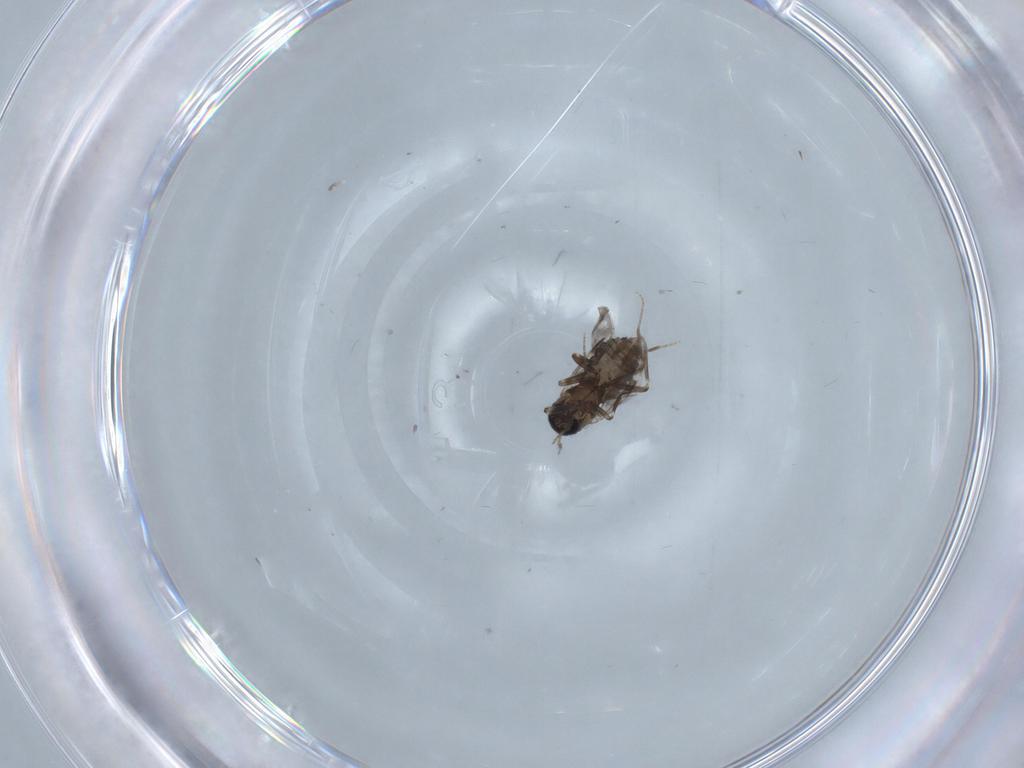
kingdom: Animalia
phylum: Arthropoda
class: Insecta
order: Diptera
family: Ceratopogonidae
